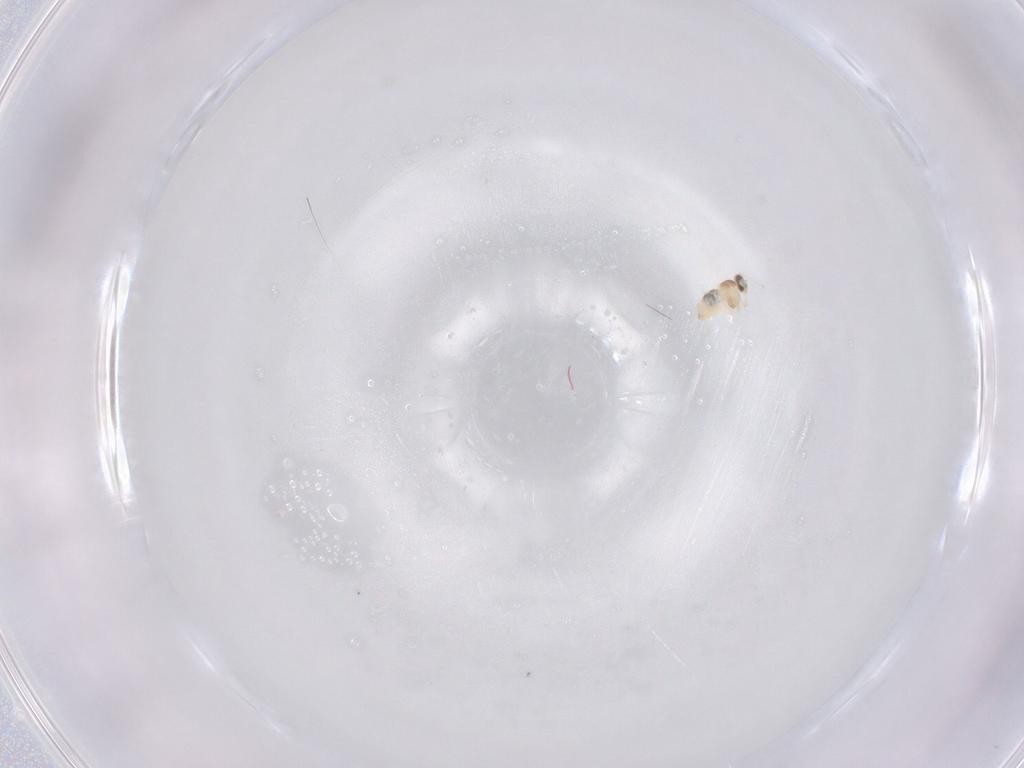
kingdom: Animalia
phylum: Arthropoda
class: Insecta
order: Diptera
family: Cecidomyiidae
